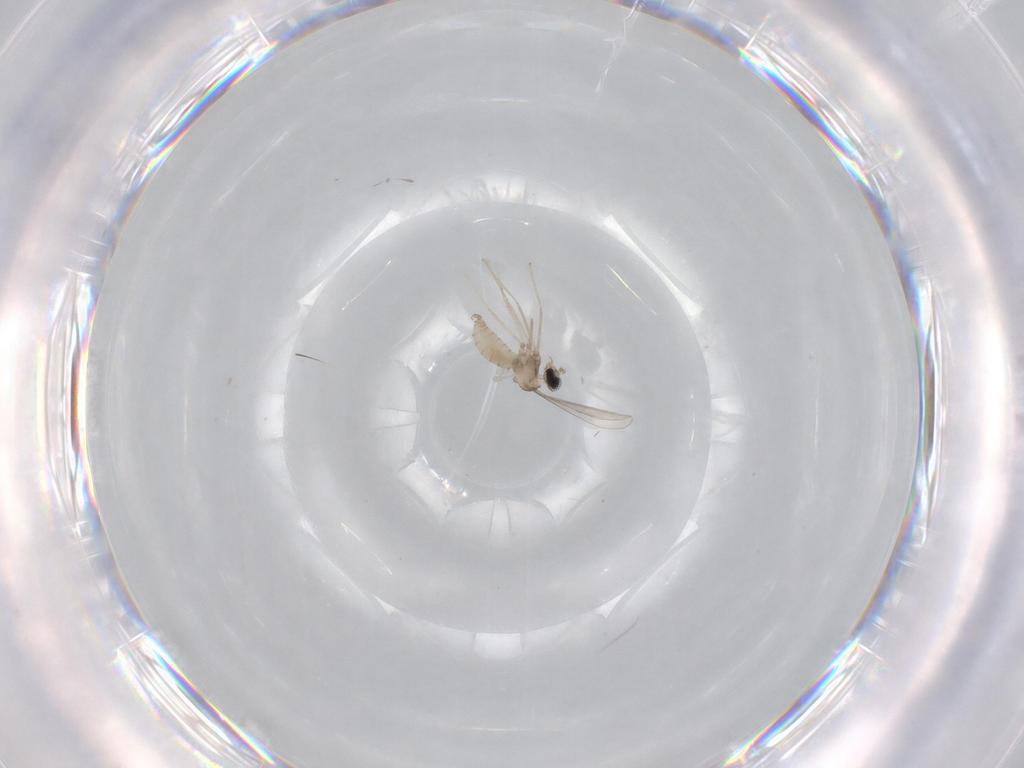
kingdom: Animalia
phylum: Arthropoda
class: Insecta
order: Diptera
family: Cecidomyiidae
